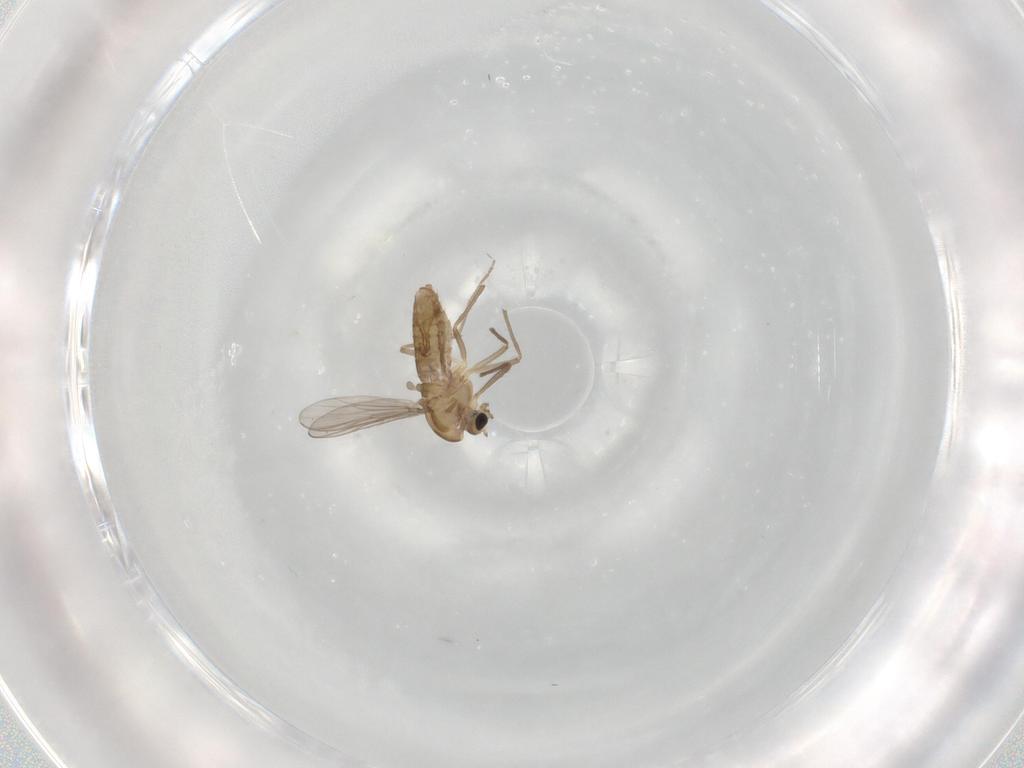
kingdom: Animalia
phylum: Arthropoda
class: Insecta
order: Diptera
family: Chironomidae
